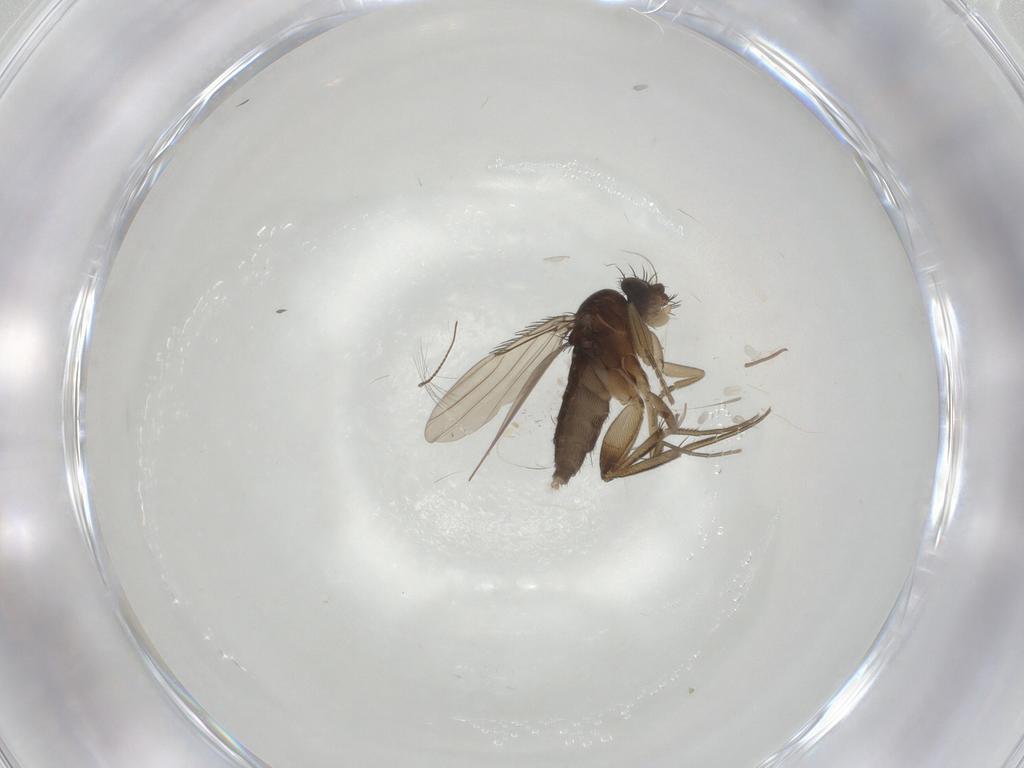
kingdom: Animalia
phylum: Arthropoda
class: Insecta
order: Diptera
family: Phoridae
